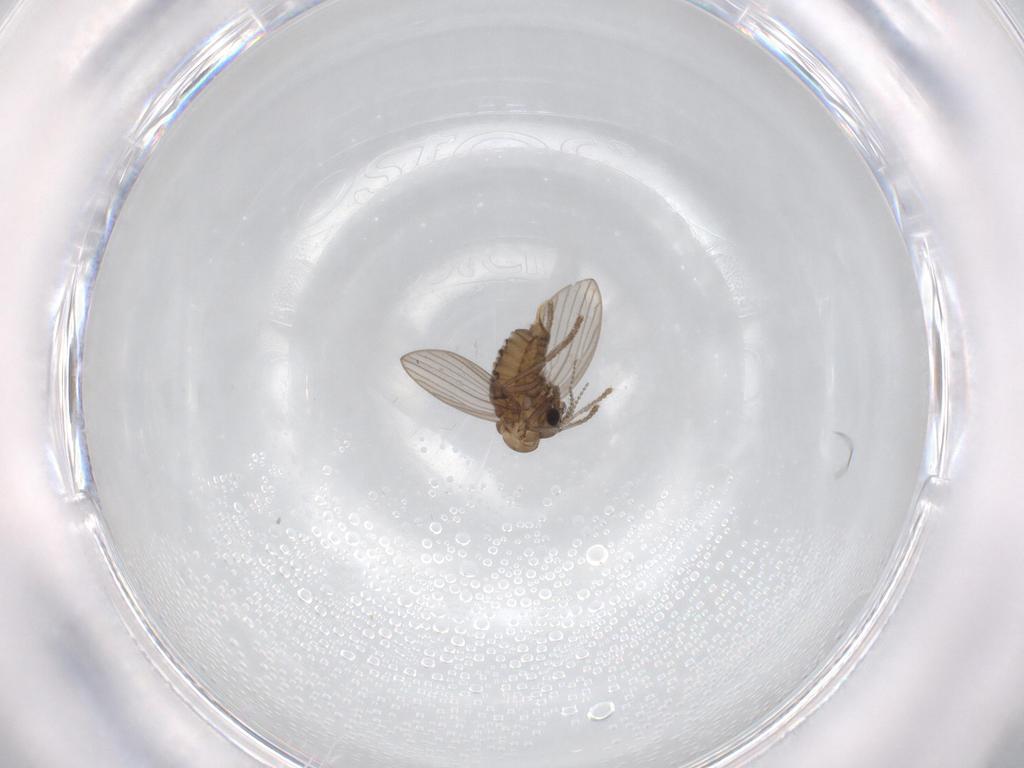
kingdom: Animalia
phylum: Arthropoda
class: Insecta
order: Diptera
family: Psychodidae
